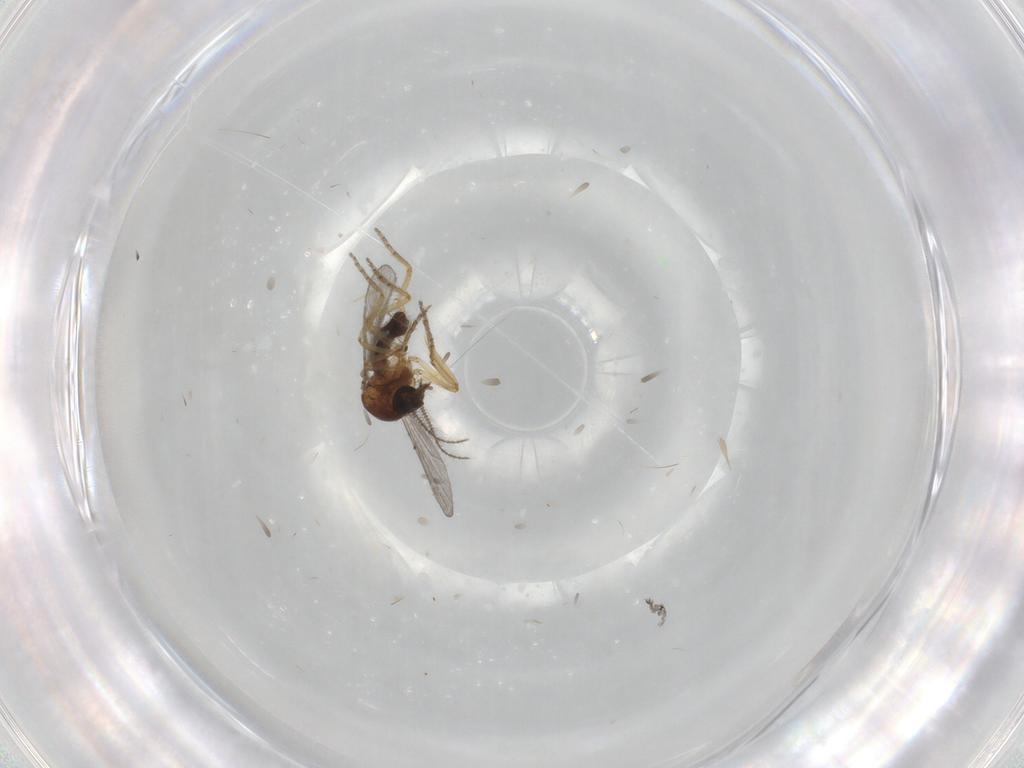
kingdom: Animalia
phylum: Arthropoda
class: Insecta
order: Diptera
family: Ceratopogonidae
